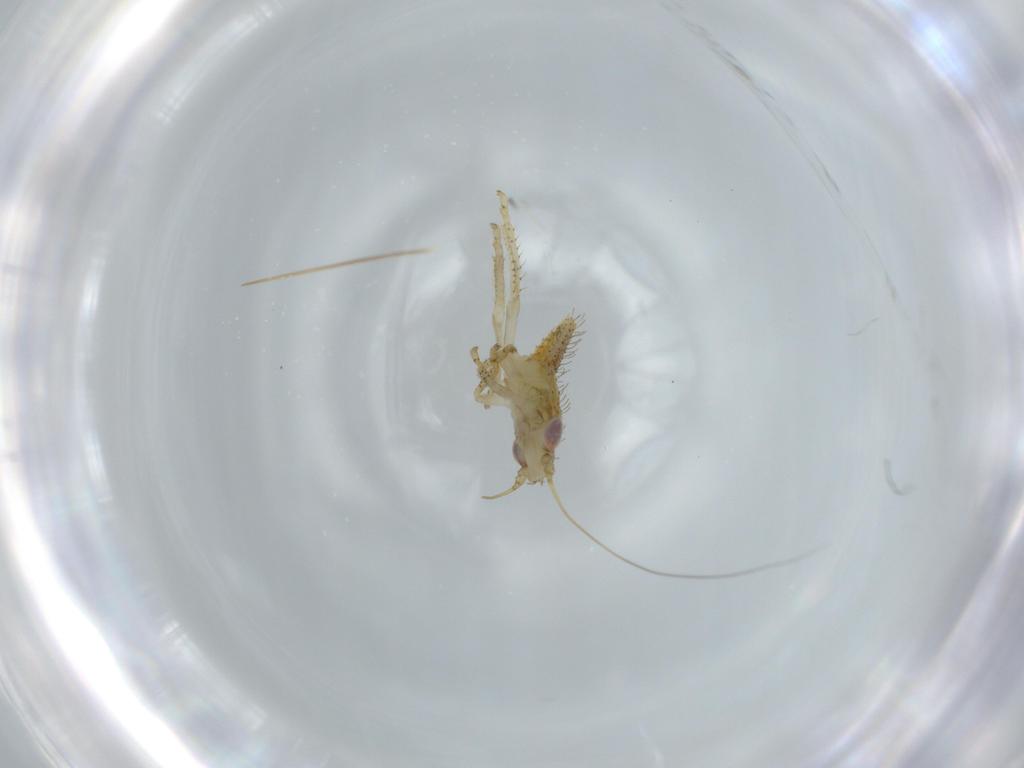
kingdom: Animalia
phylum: Arthropoda
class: Insecta
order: Hemiptera
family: Cicadellidae
